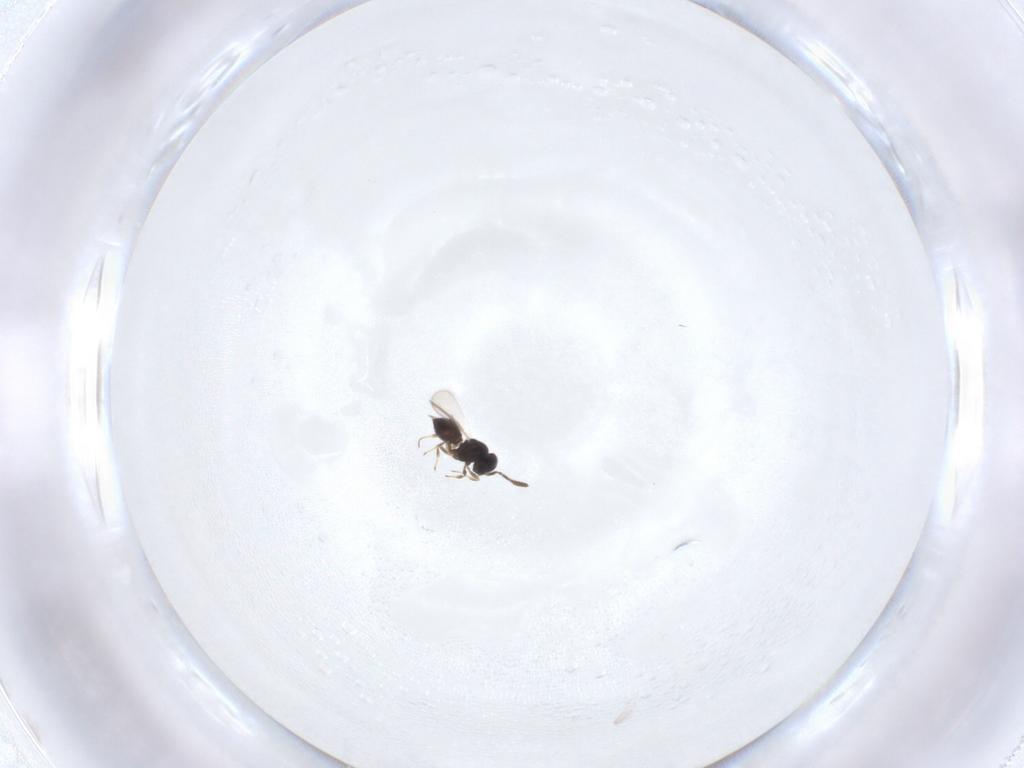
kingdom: Animalia
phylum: Arthropoda
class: Insecta
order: Hymenoptera
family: Scelionidae
